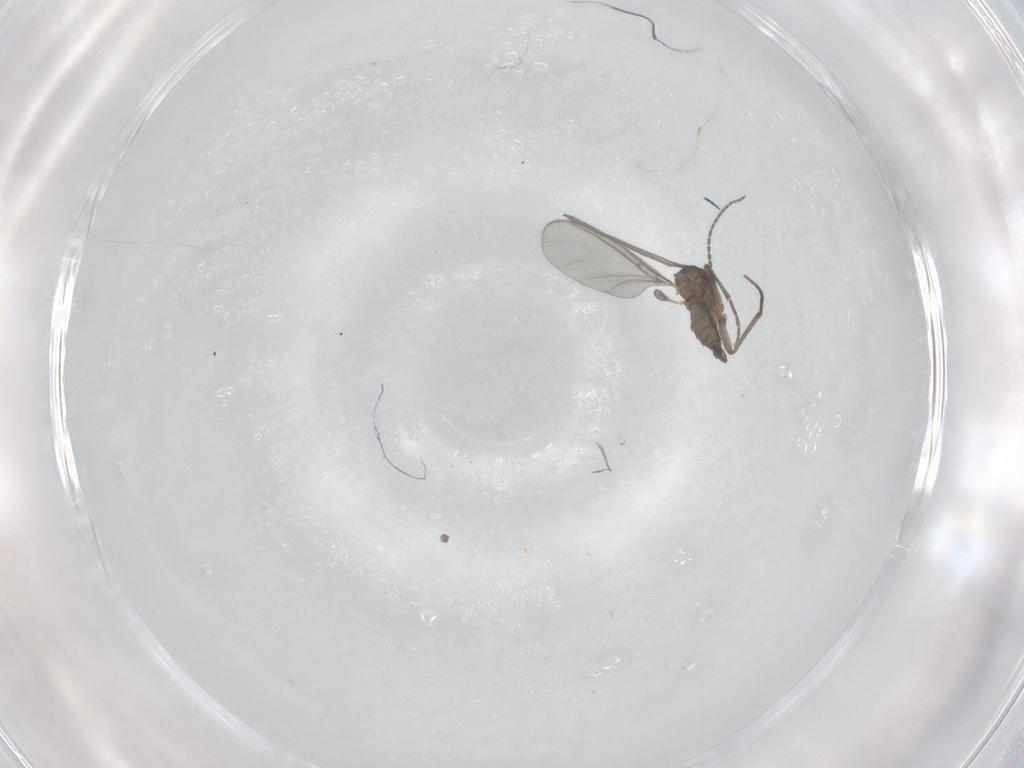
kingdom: Animalia
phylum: Arthropoda
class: Insecta
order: Diptera
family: Sciaridae
